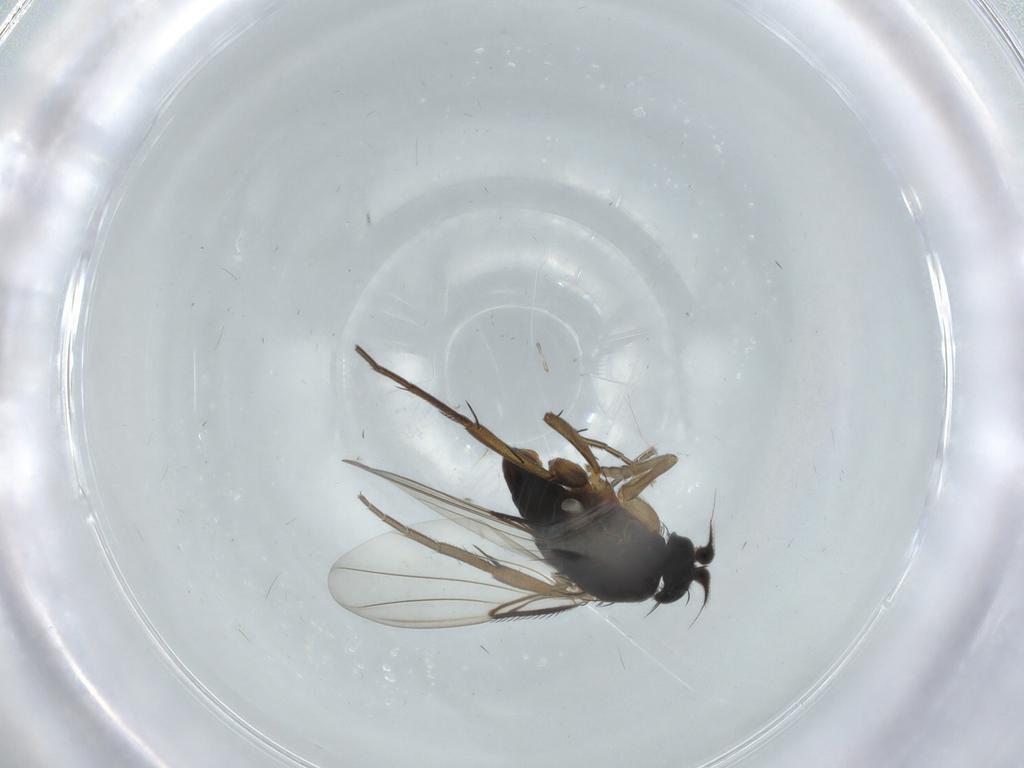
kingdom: Animalia
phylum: Arthropoda
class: Insecta
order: Diptera
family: Phoridae
